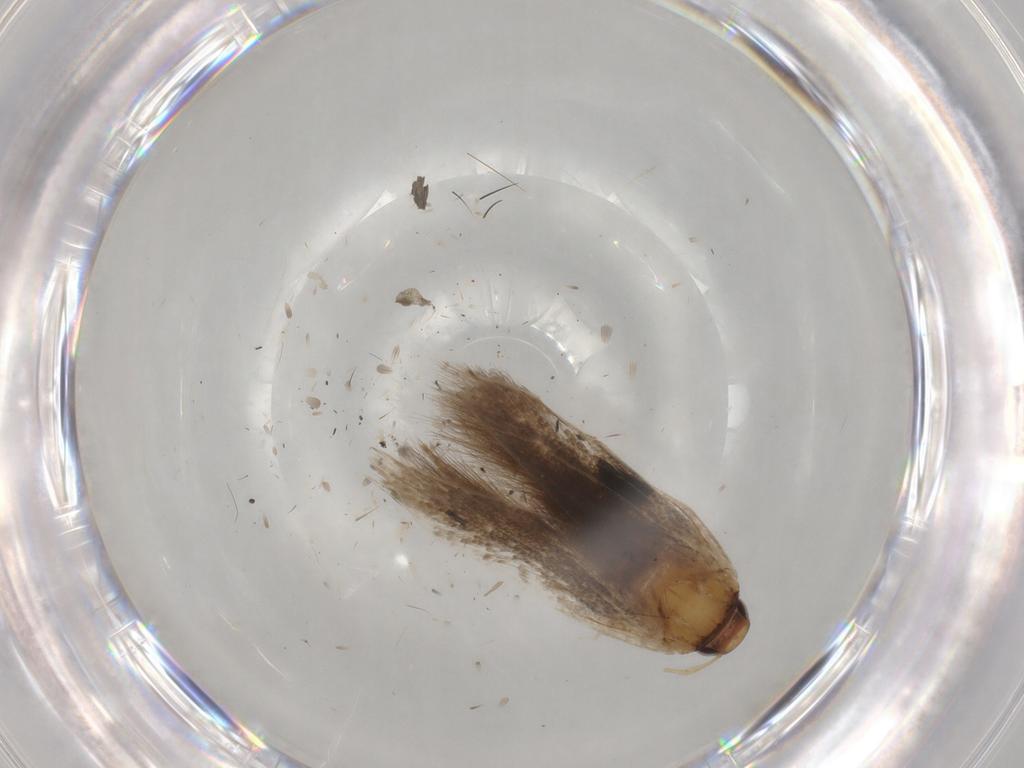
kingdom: Animalia
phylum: Arthropoda
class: Insecta
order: Lepidoptera
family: Cosmopterigidae
